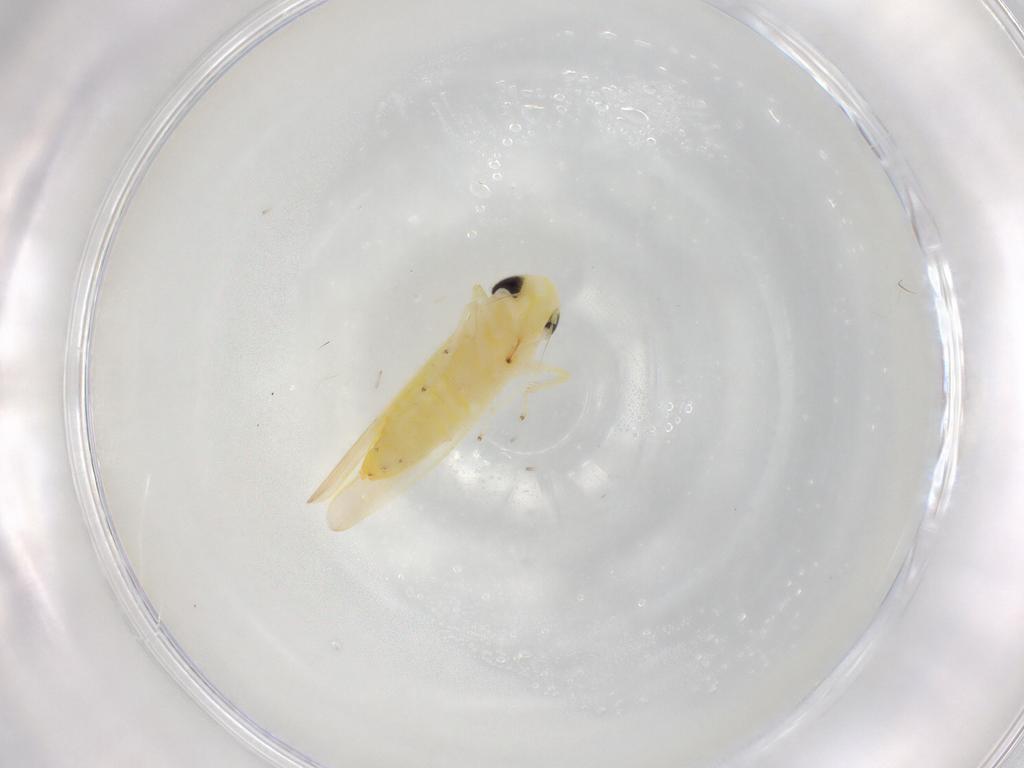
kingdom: Animalia
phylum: Arthropoda
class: Insecta
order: Hemiptera
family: Cicadellidae
